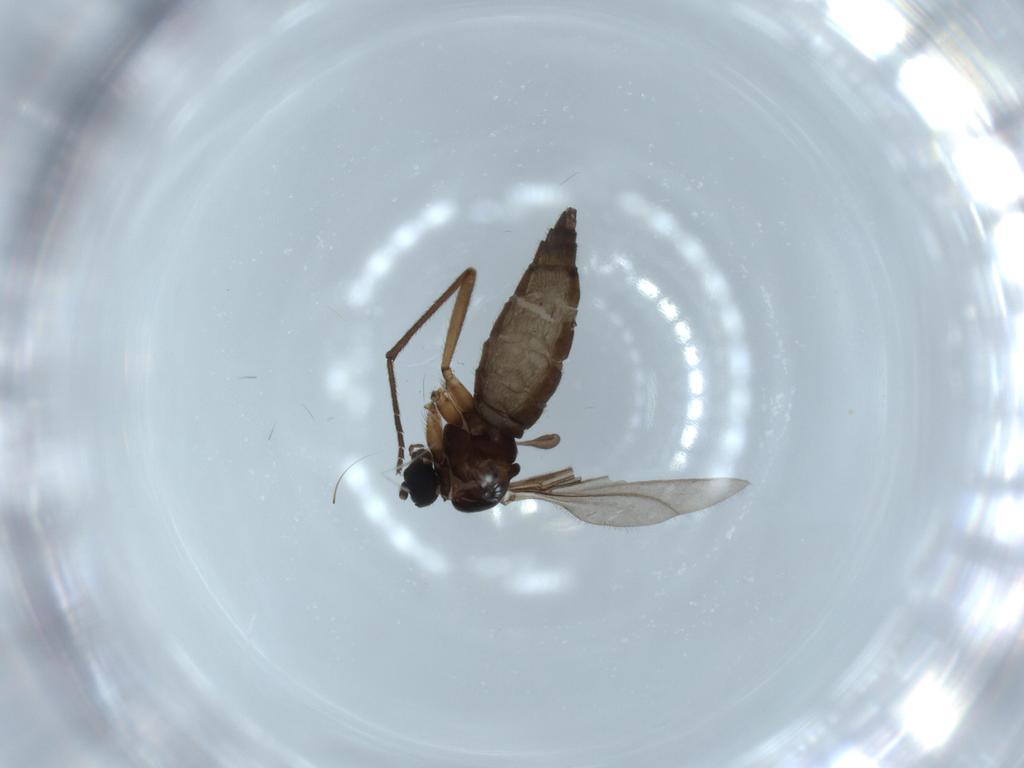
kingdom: Animalia
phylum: Arthropoda
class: Insecta
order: Diptera
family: Sciaridae
